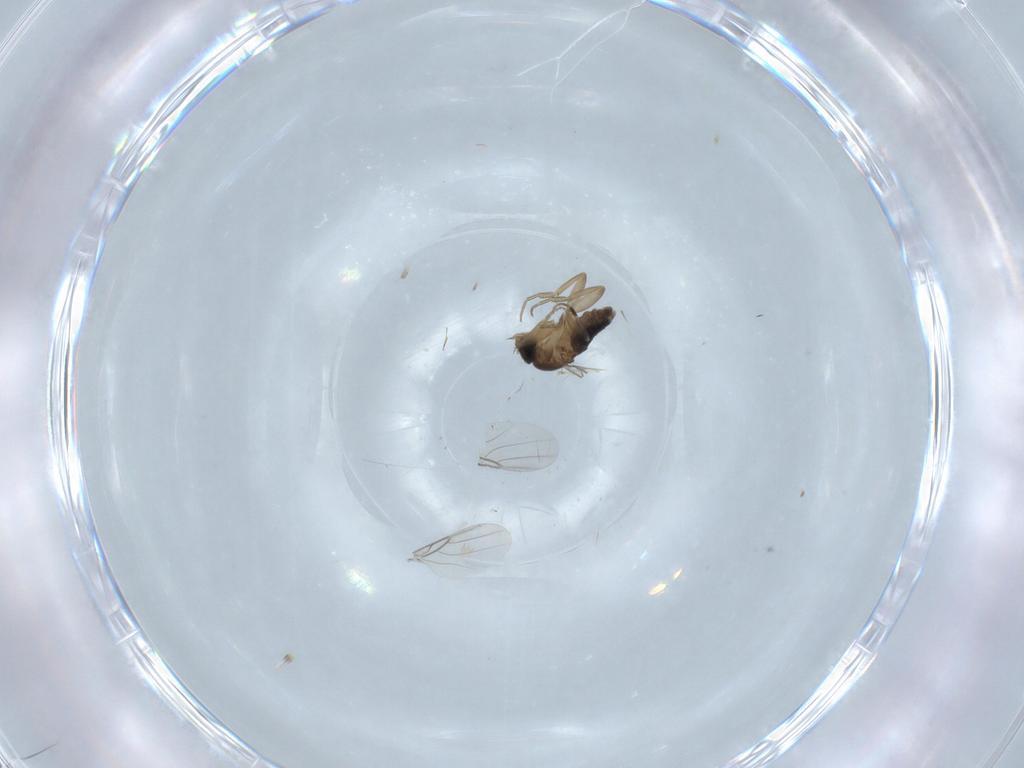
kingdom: Animalia
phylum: Arthropoda
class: Insecta
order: Diptera
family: Phoridae
